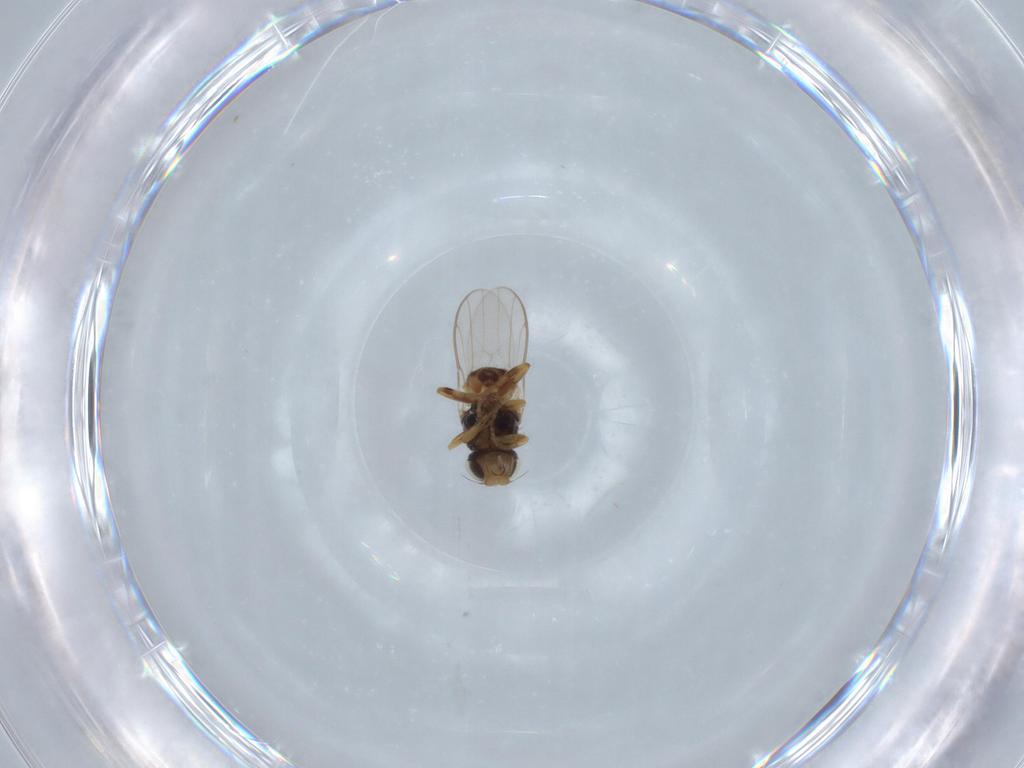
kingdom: Animalia
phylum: Arthropoda
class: Insecta
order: Diptera
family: Chloropidae
